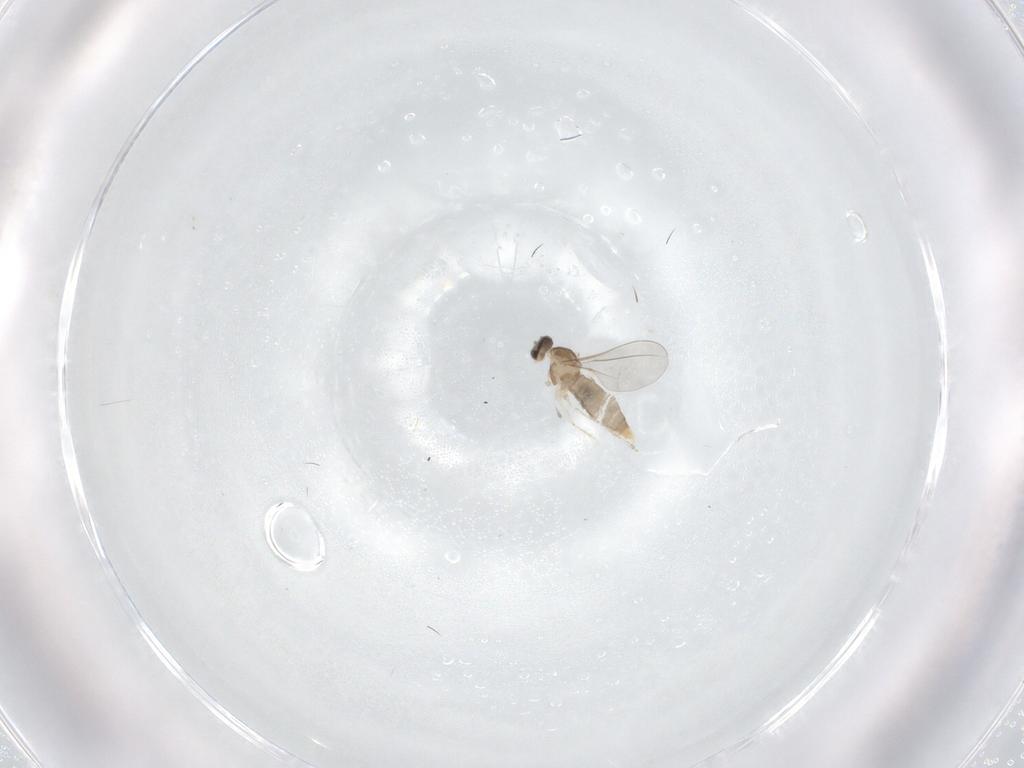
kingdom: Animalia
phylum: Arthropoda
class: Insecta
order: Diptera
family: Cecidomyiidae
